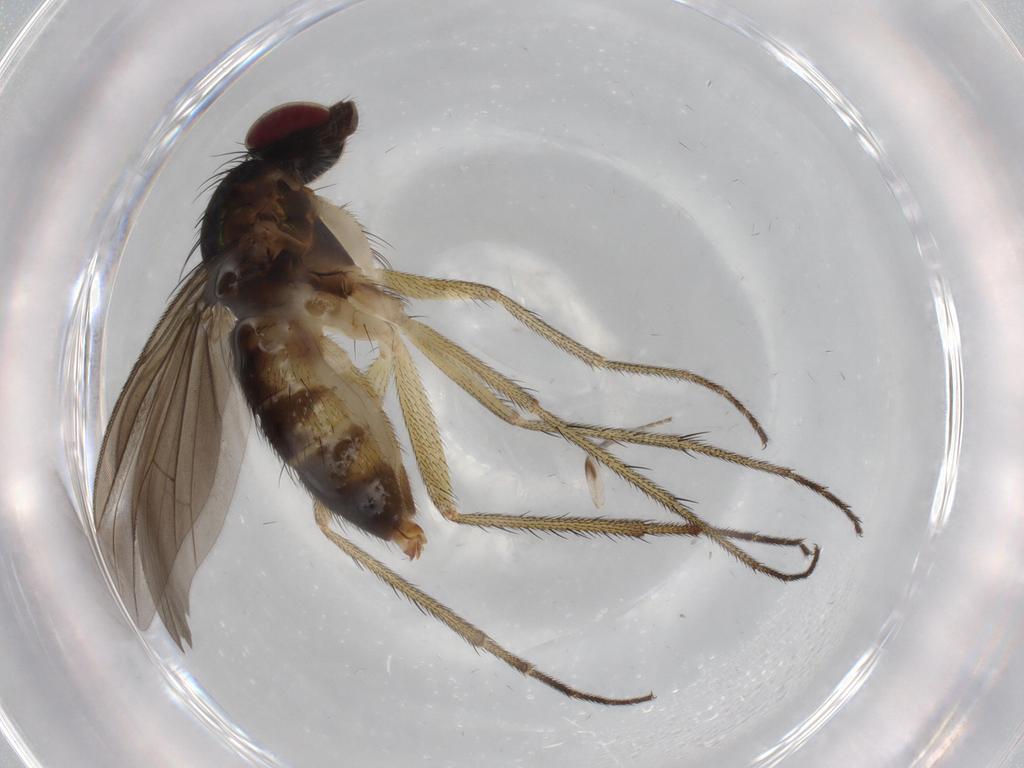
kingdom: Animalia
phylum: Arthropoda
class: Insecta
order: Diptera
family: Dolichopodidae
